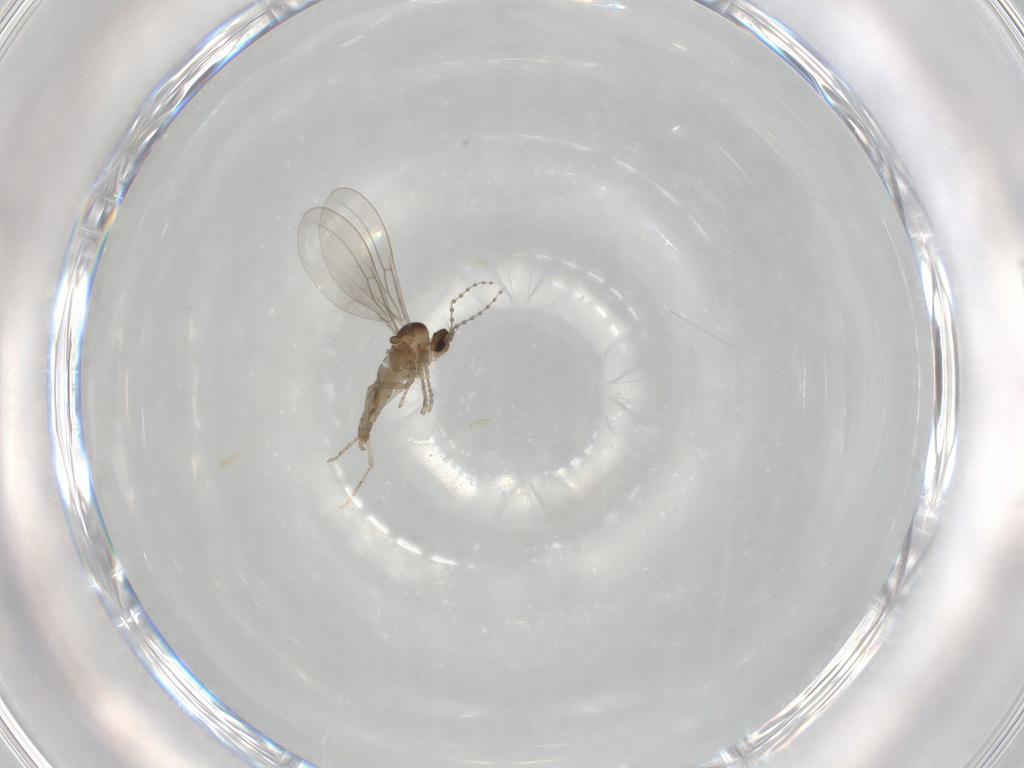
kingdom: Animalia
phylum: Arthropoda
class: Insecta
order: Diptera
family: Cecidomyiidae
